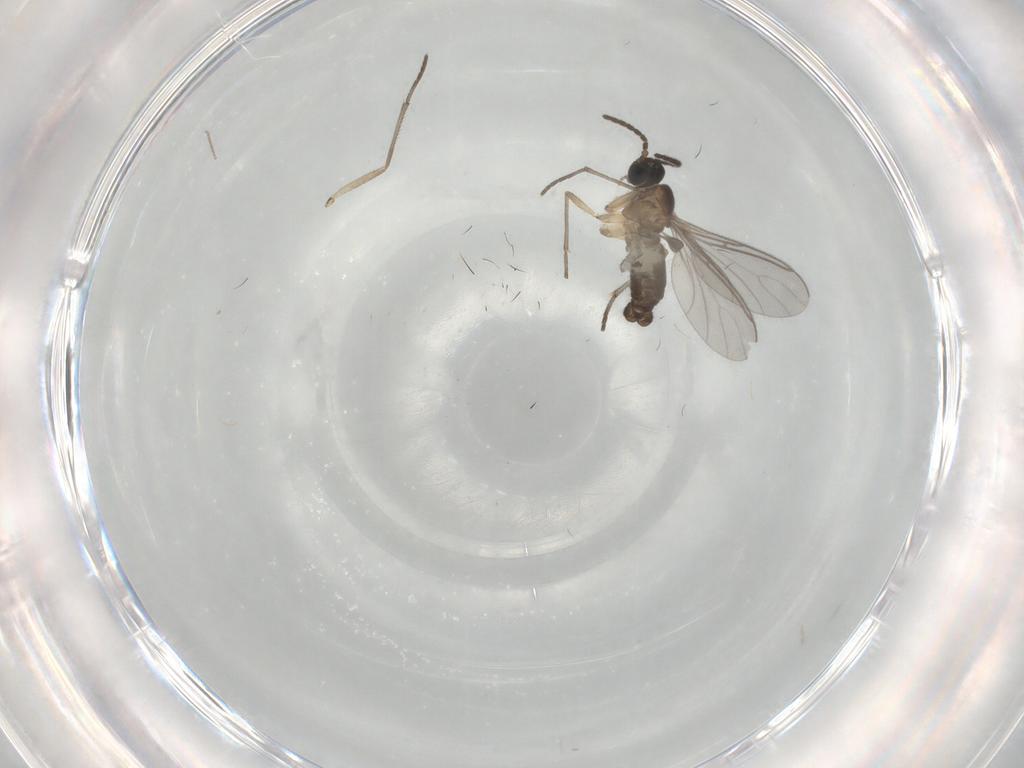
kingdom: Animalia
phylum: Arthropoda
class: Insecta
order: Diptera
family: Sciaridae
